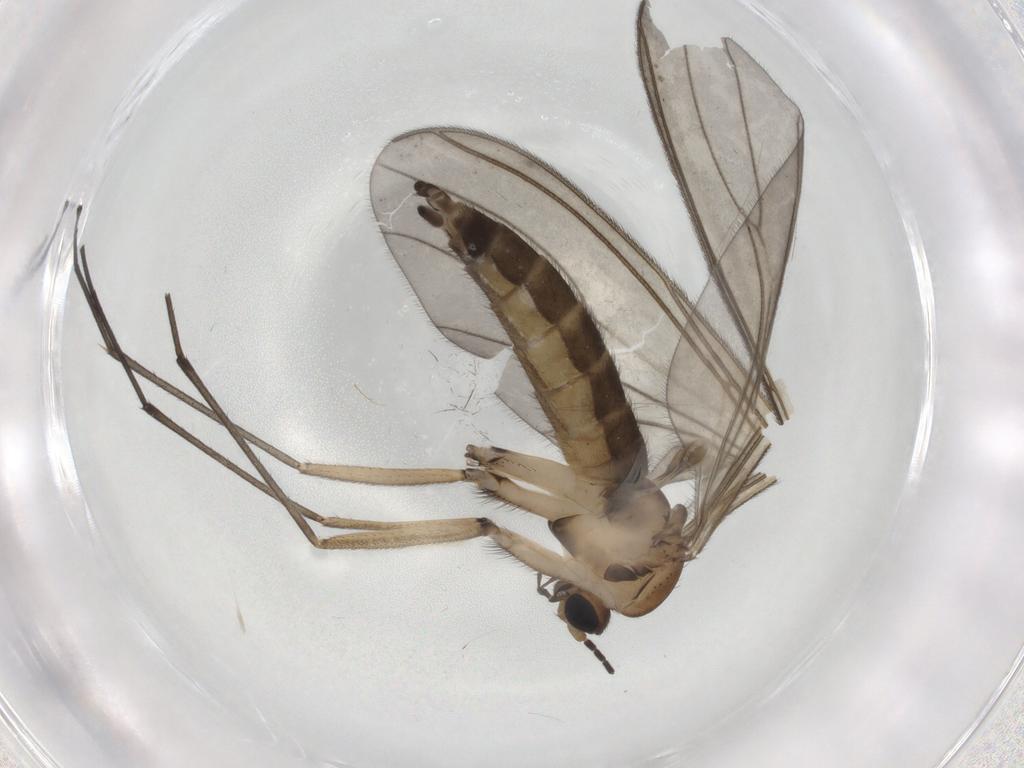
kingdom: Animalia
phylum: Arthropoda
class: Insecta
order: Diptera
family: Sciaridae
